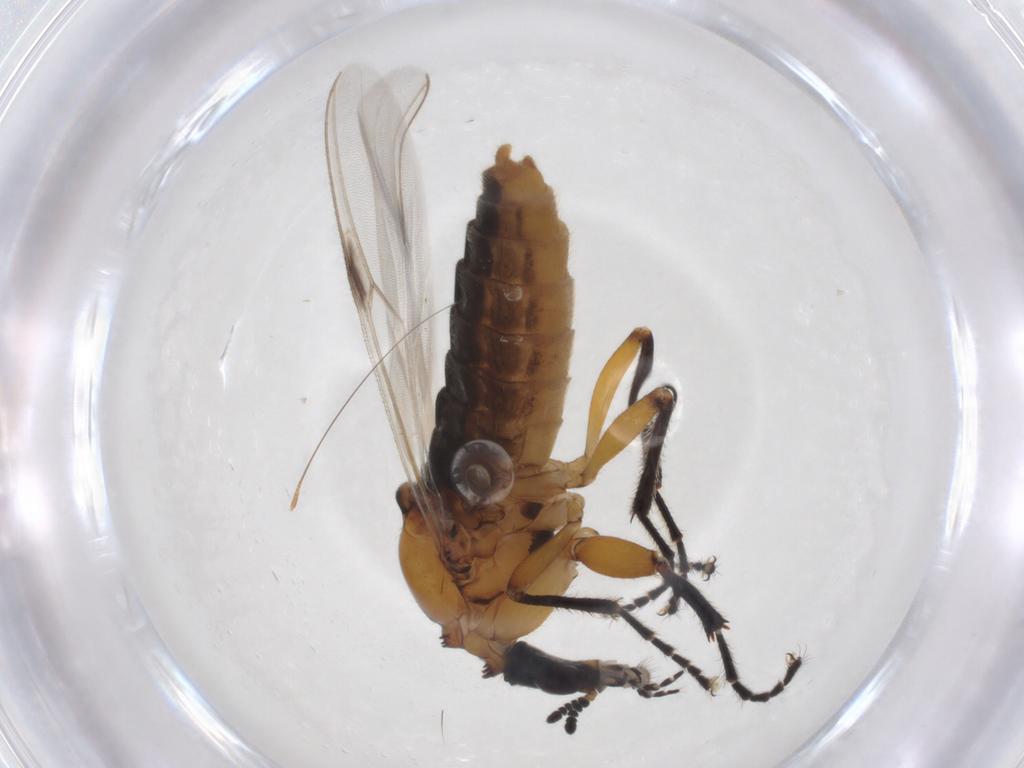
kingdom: Animalia
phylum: Arthropoda
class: Insecta
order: Diptera
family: Bibionidae
